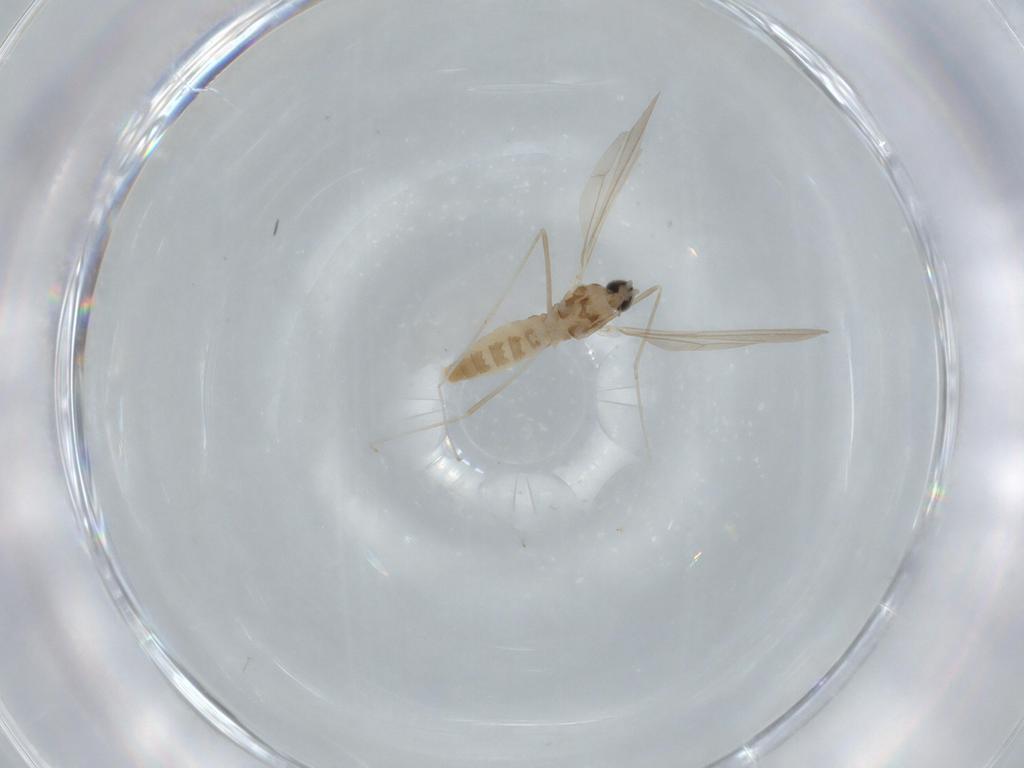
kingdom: Animalia
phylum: Arthropoda
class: Insecta
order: Diptera
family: Cecidomyiidae
